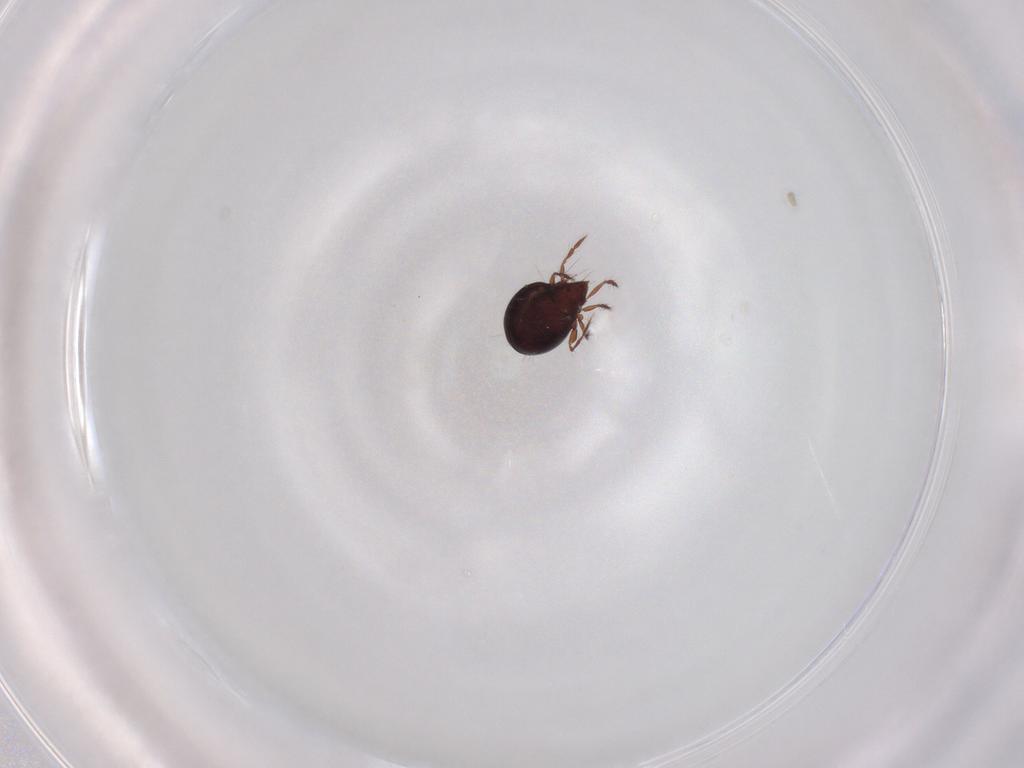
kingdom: Animalia
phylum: Arthropoda
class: Arachnida
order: Sarcoptiformes
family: Ceratoppiidae
